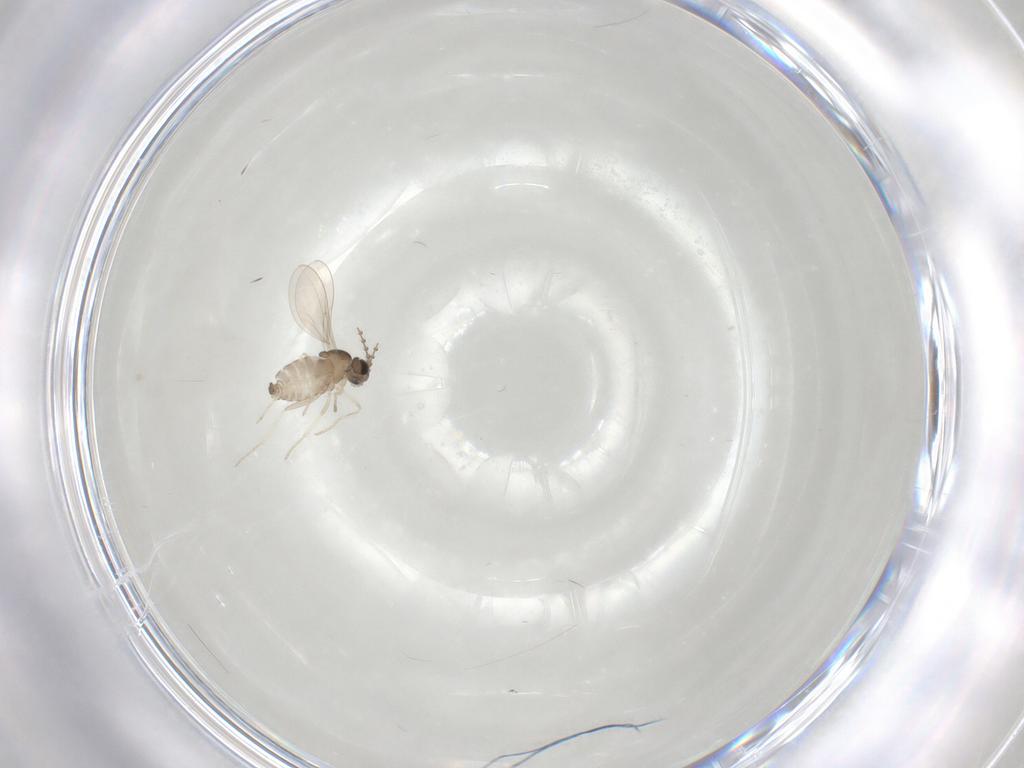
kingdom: Animalia
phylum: Arthropoda
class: Insecta
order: Diptera
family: Cecidomyiidae
